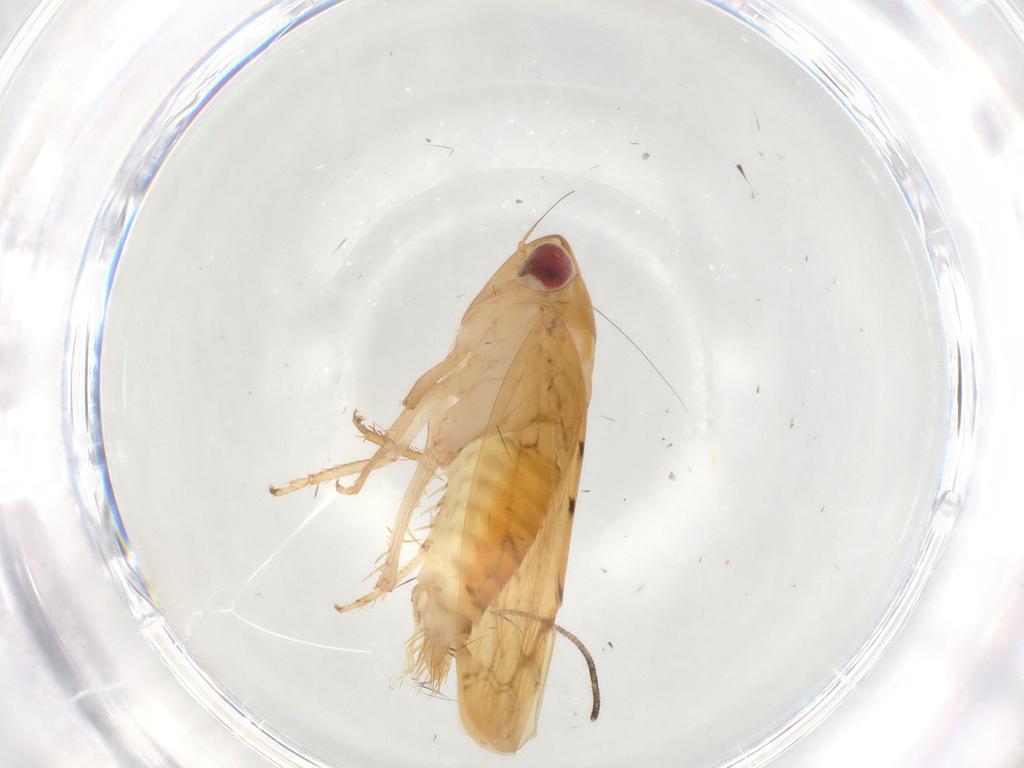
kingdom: Animalia
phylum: Arthropoda
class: Insecta
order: Hemiptera
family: Cicadellidae
